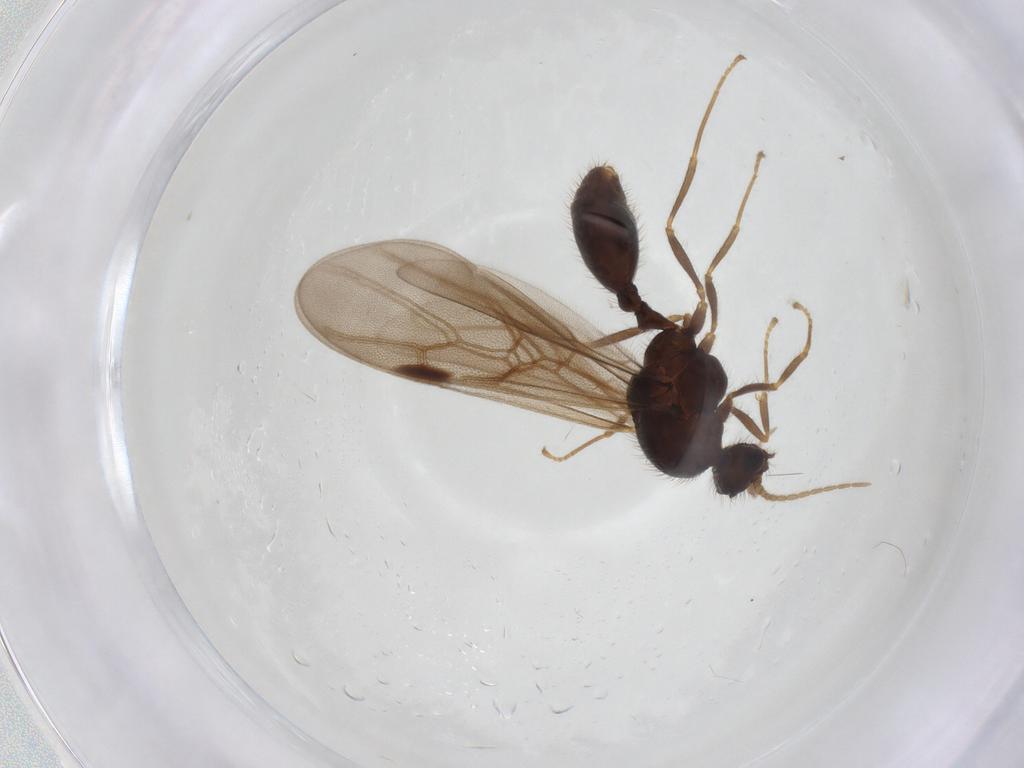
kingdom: Animalia
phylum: Arthropoda
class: Insecta
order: Hymenoptera
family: Formicidae
